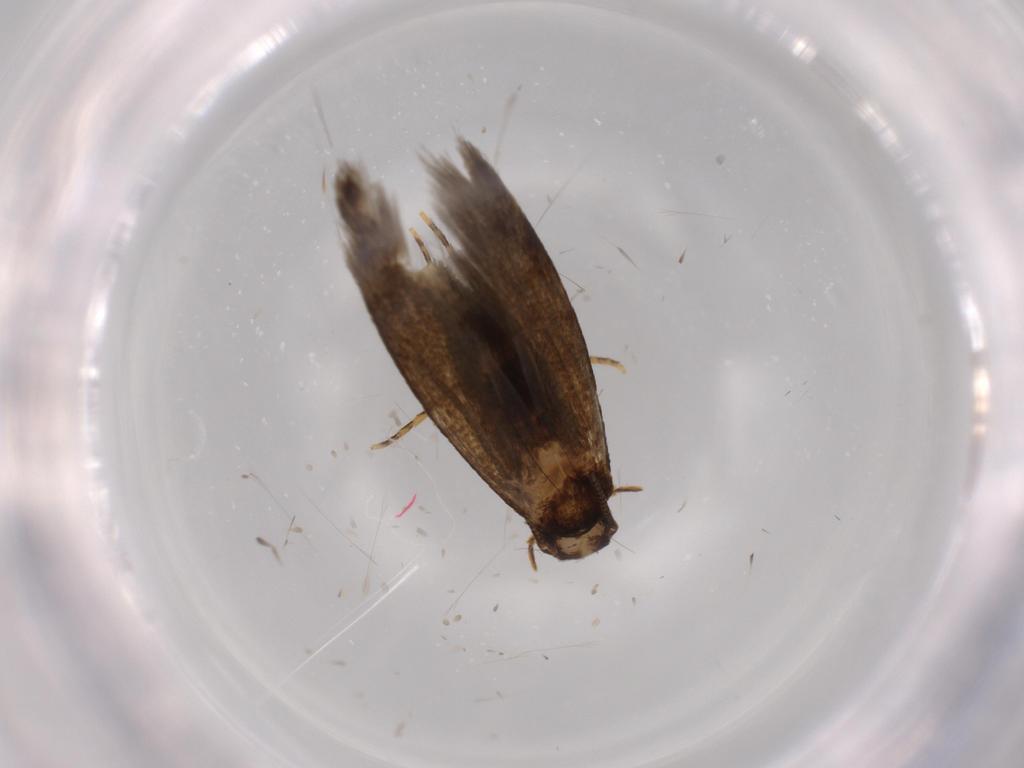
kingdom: Animalia
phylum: Arthropoda
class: Insecta
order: Lepidoptera
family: Tineidae
